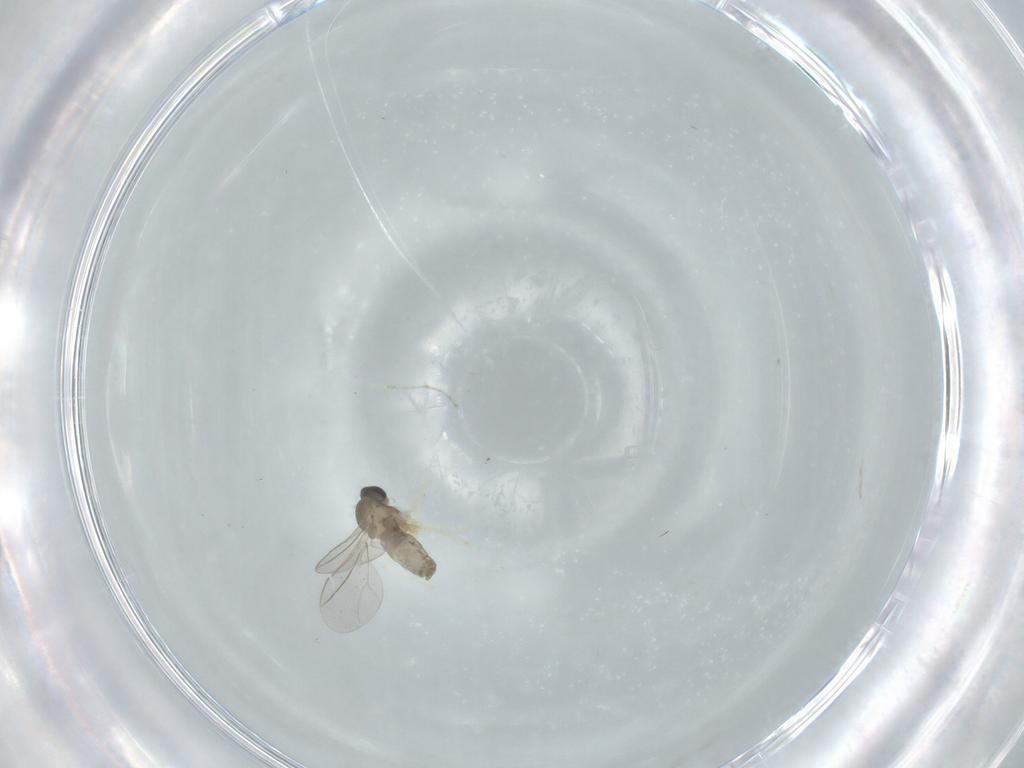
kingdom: Animalia
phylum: Arthropoda
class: Insecta
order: Diptera
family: Cecidomyiidae
